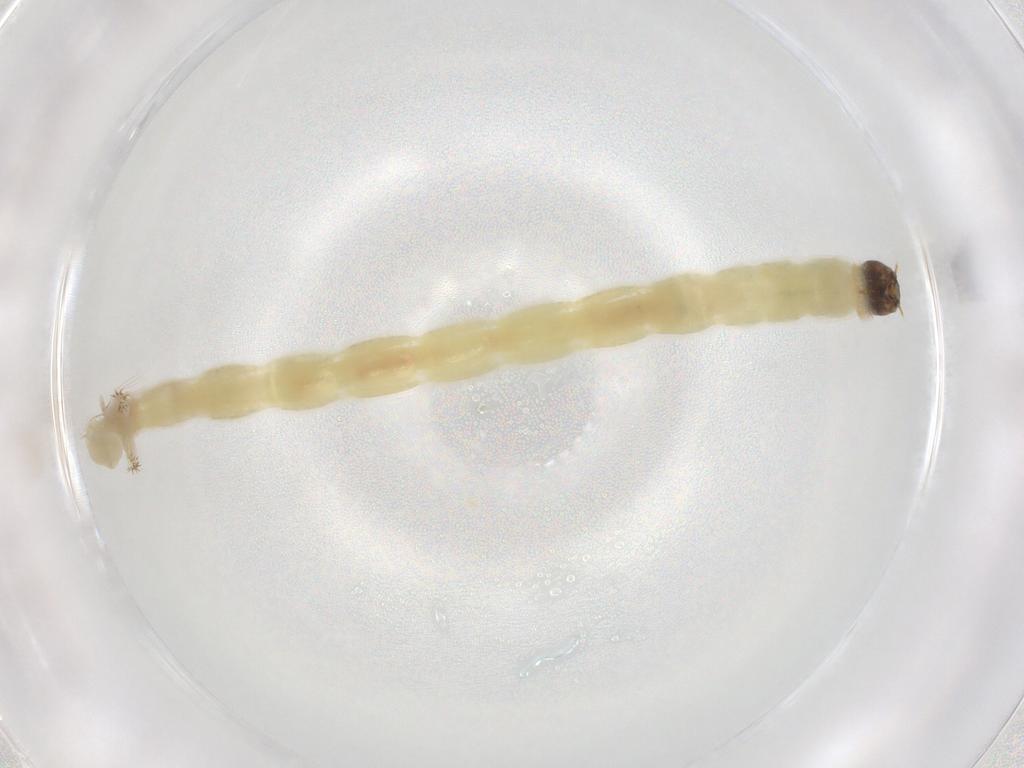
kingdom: Animalia
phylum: Arthropoda
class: Insecta
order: Diptera
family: Chironomidae
